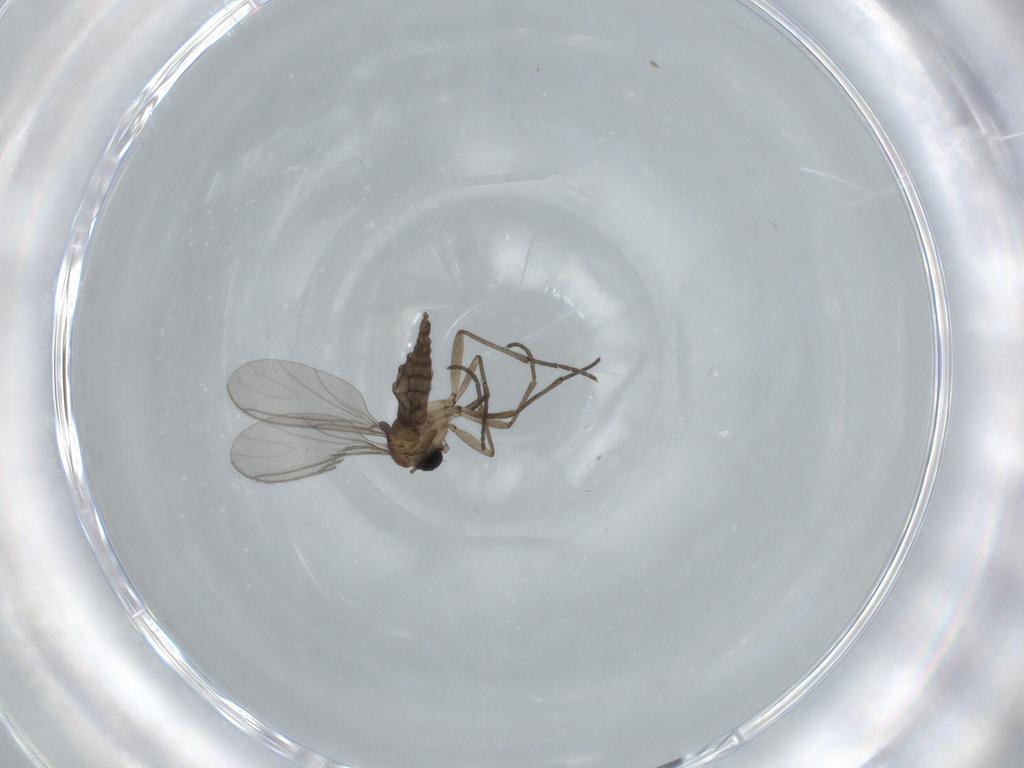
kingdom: Animalia
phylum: Arthropoda
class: Insecta
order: Diptera
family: Sciaridae
